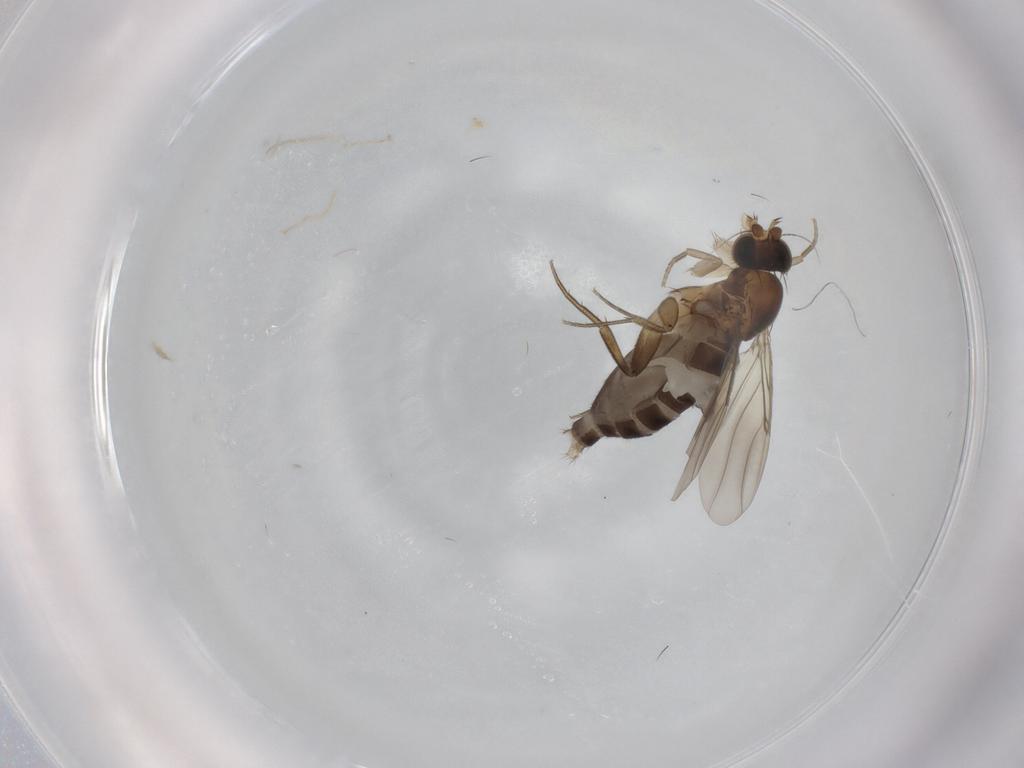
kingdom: Animalia
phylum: Arthropoda
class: Insecta
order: Diptera
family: Phoridae
